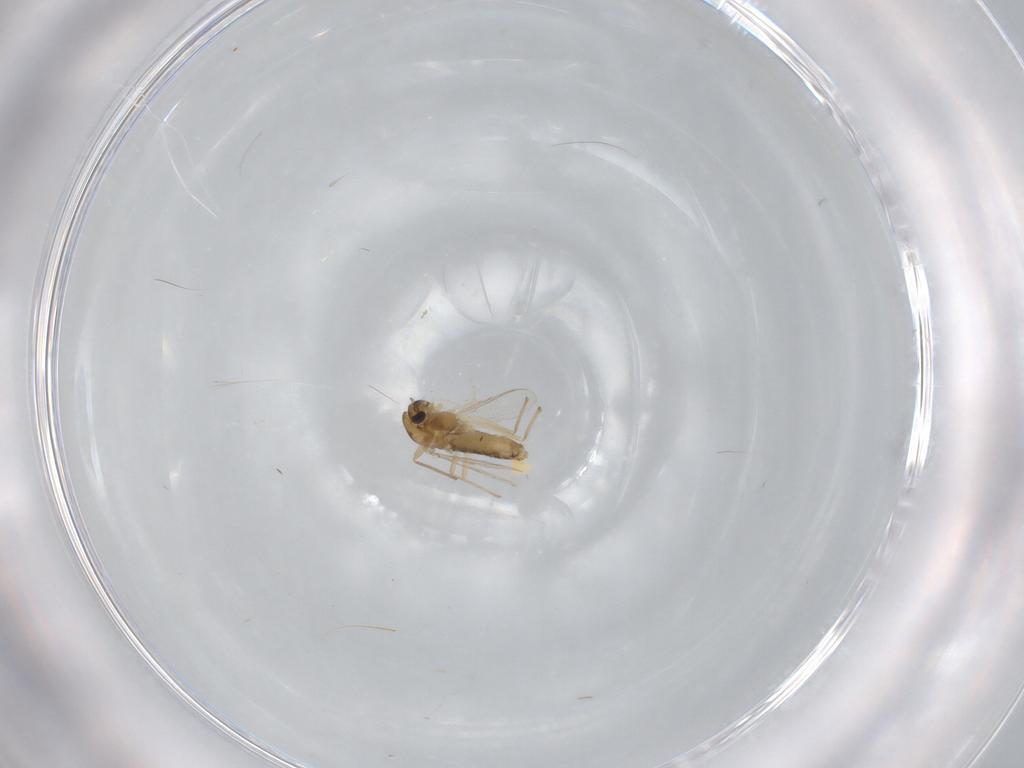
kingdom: Animalia
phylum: Arthropoda
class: Insecta
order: Diptera
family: Chironomidae
